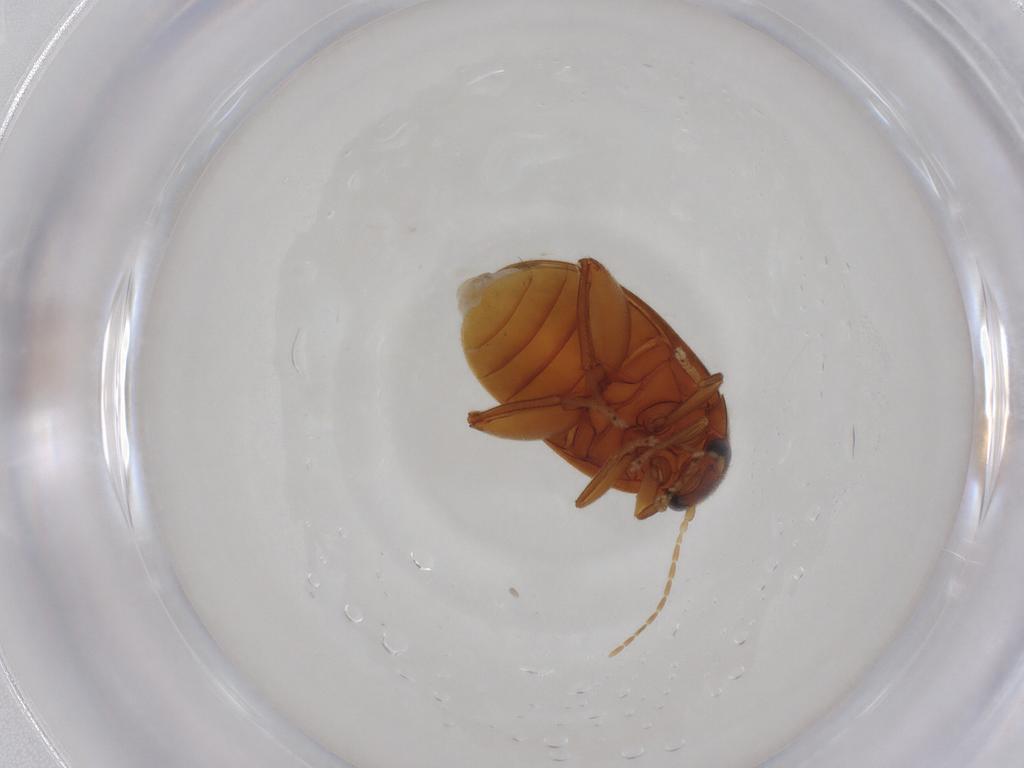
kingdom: Animalia
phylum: Arthropoda
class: Insecta
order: Coleoptera
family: Scirtidae
